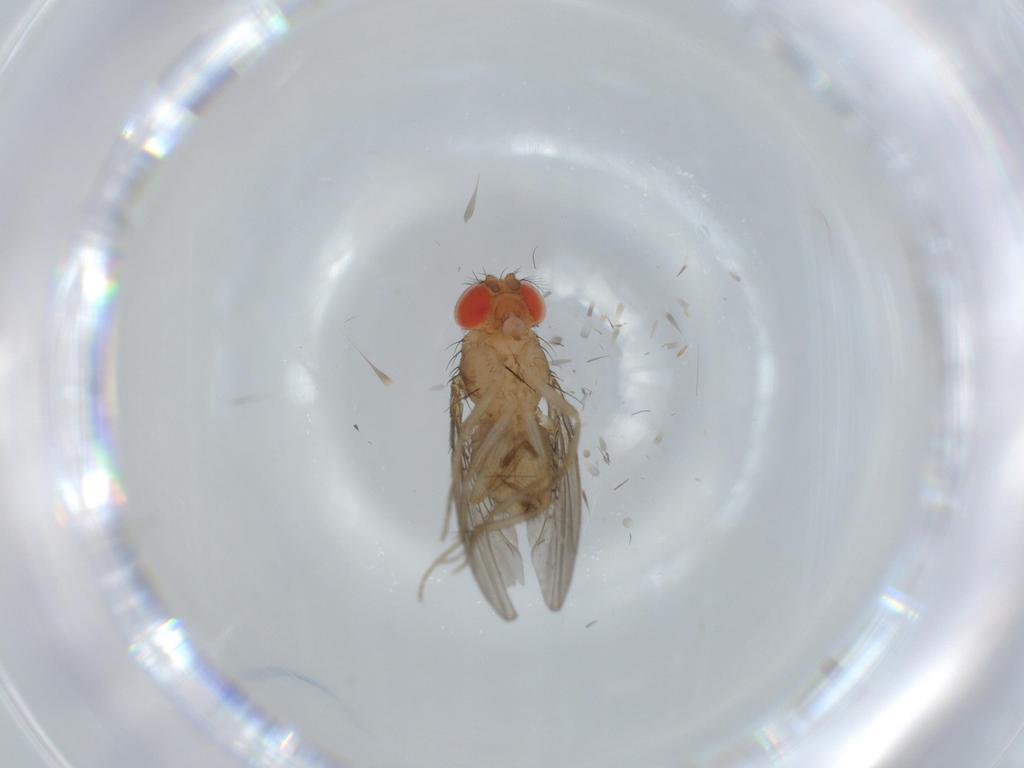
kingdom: Animalia
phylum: Arthropoda
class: Insecta
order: Diptera
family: Drosophilidae
